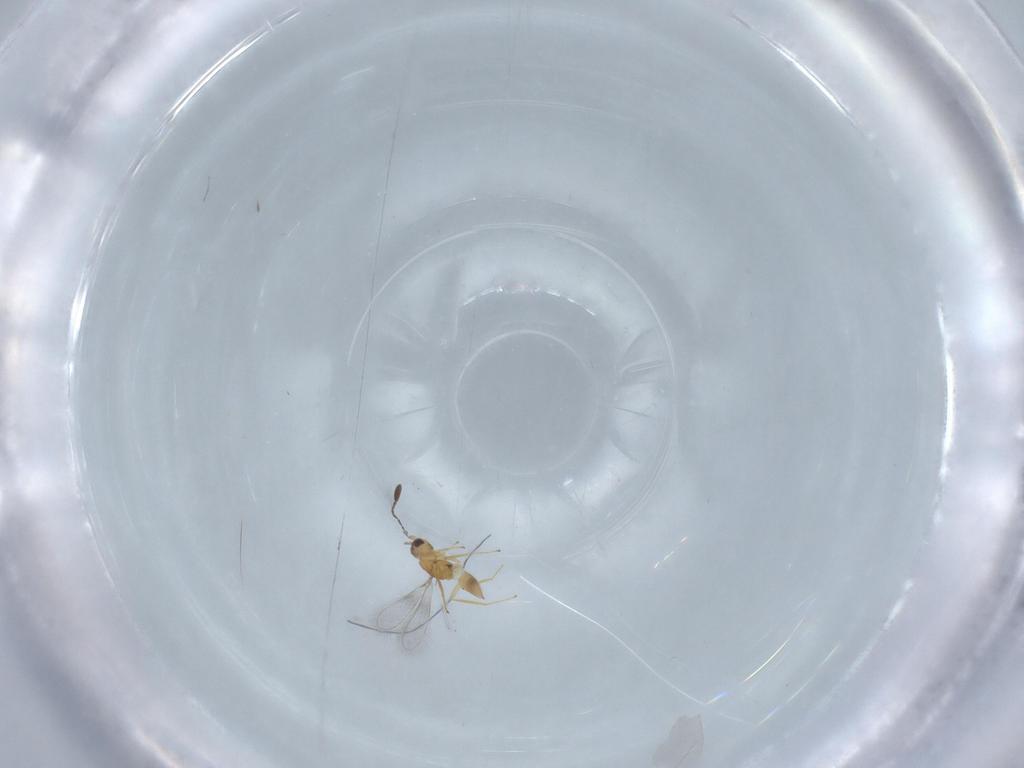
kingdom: Animalia
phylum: Arthropoda
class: Insecta
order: Hymenoptera
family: Mymaridae
